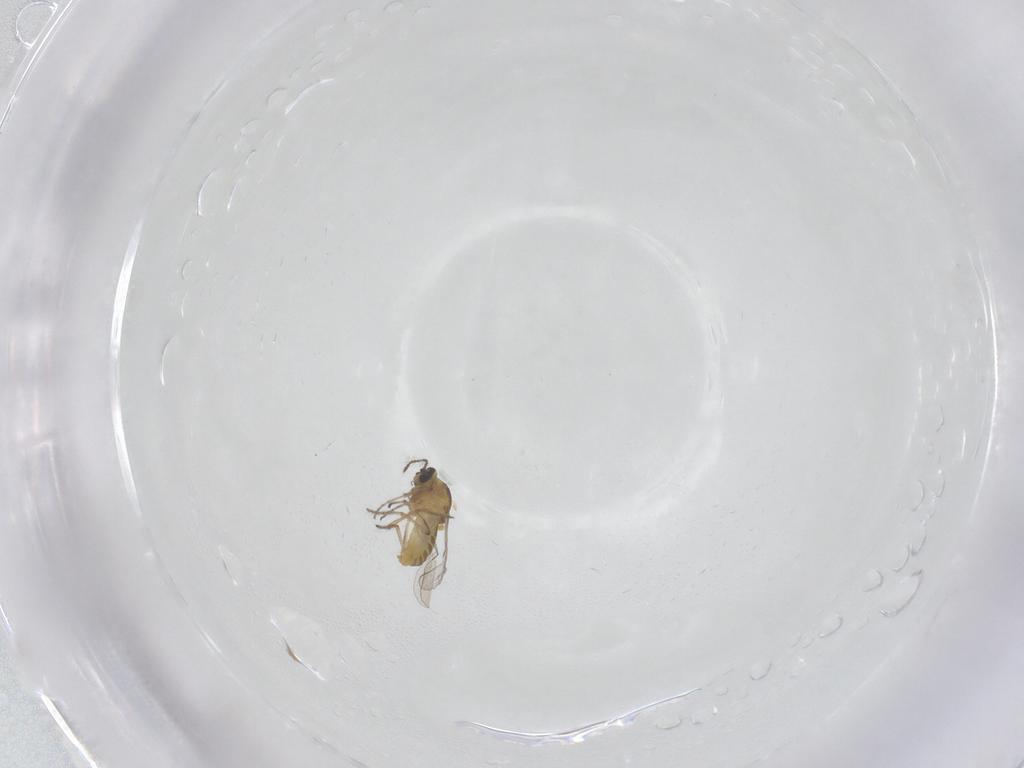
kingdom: Animalia
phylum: Arthropoda
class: Insecta
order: Diptera
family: Ceratopogonidae
